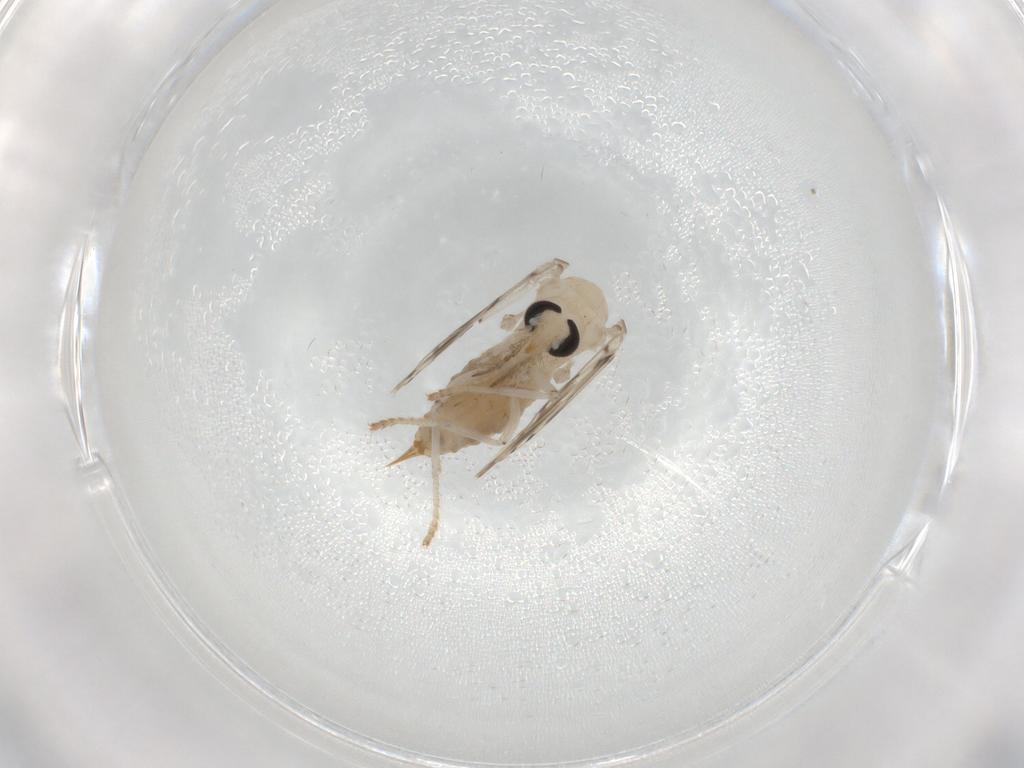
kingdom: Animalia
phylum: Arthropoda
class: Insecta
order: Diptera
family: Psychodidae
